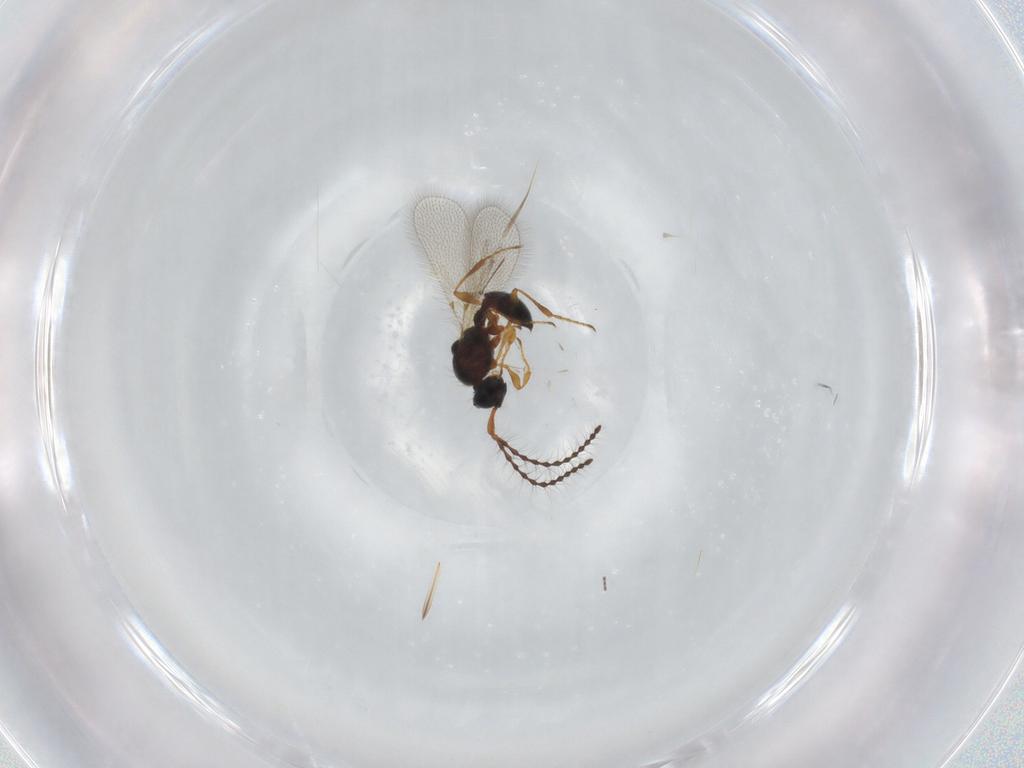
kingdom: Animalia
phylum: Arthropoda
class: Insecta
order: Hymenoptera
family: Diapriidae
